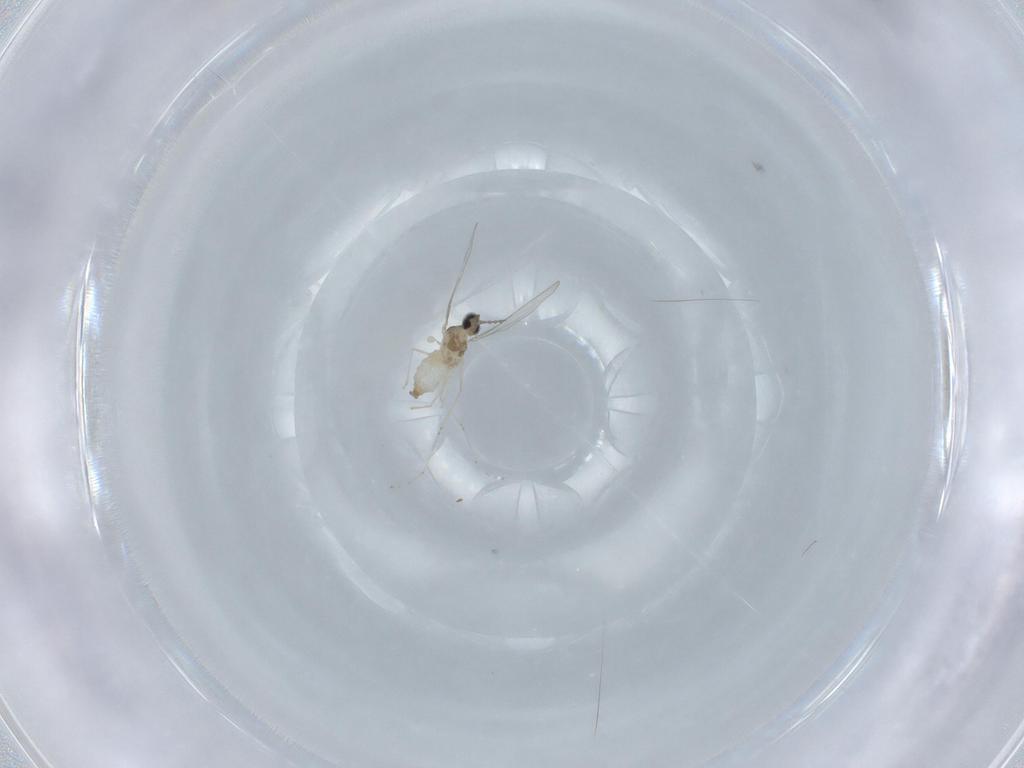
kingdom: Animalia
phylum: Arthropoda
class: Insecta
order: Diptera
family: Cecidomyiidae
